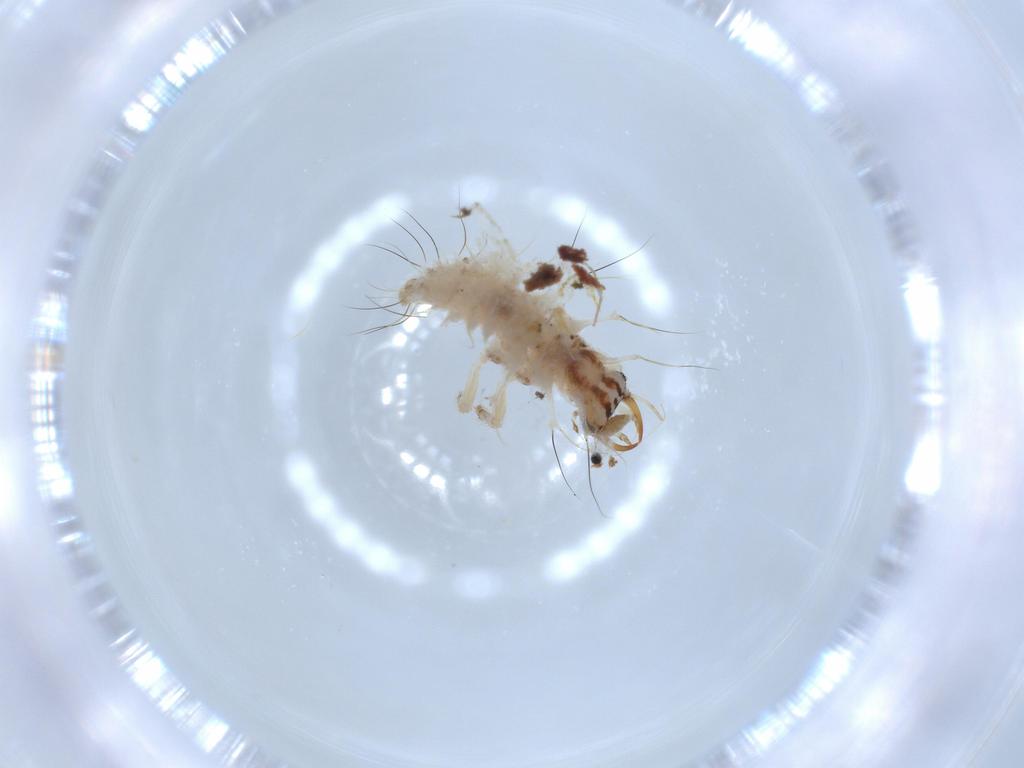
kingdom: Animalia
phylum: Arthropoda
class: Insecta
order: Neuroptera
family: Chrysopidae
